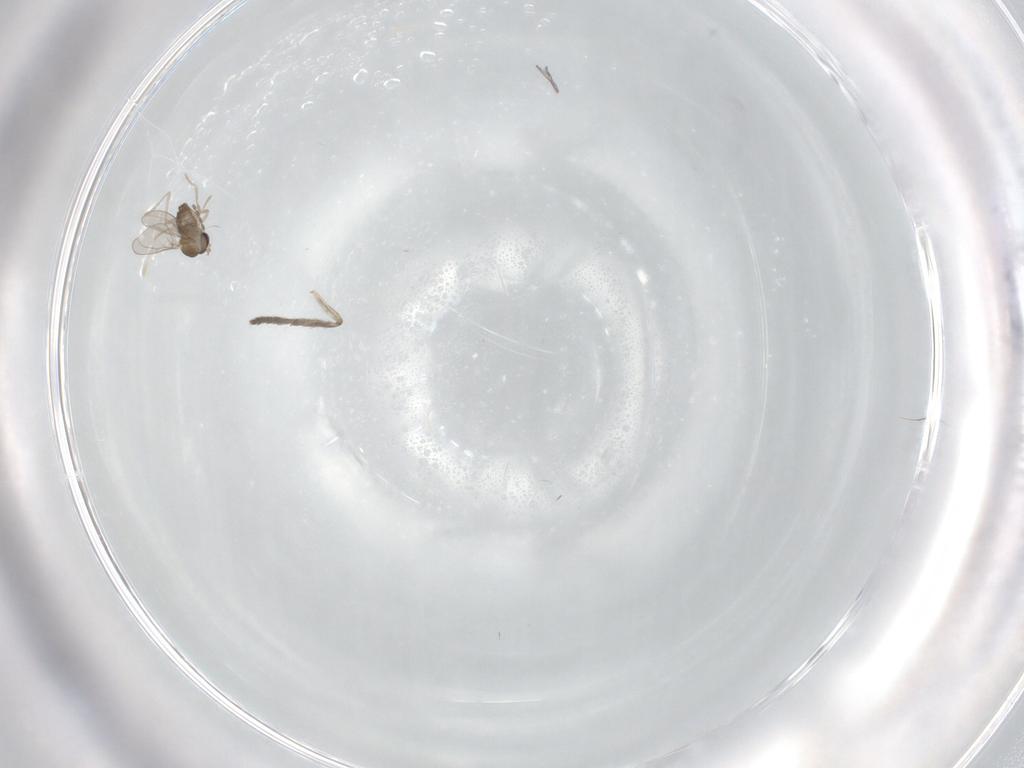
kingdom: Animalia
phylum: Arthropoda
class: Insecta
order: Diptera
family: Cecidomyiidae
